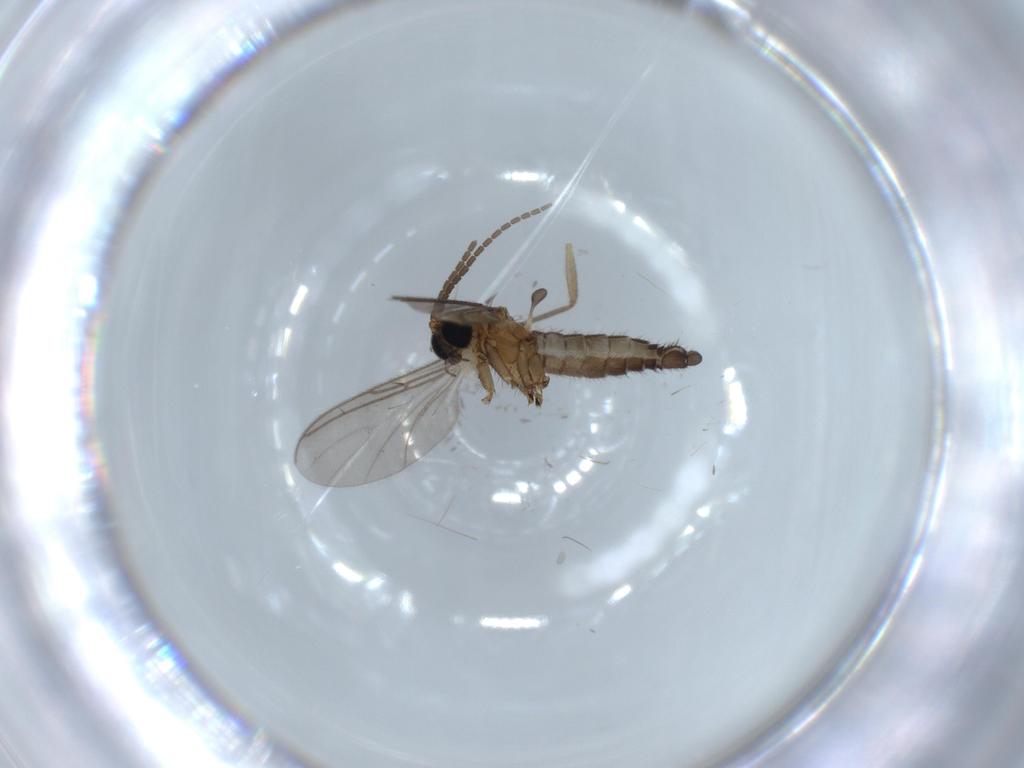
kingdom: Animalia
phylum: Arthropoda
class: Insecta
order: Diptera
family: Sciaridae
